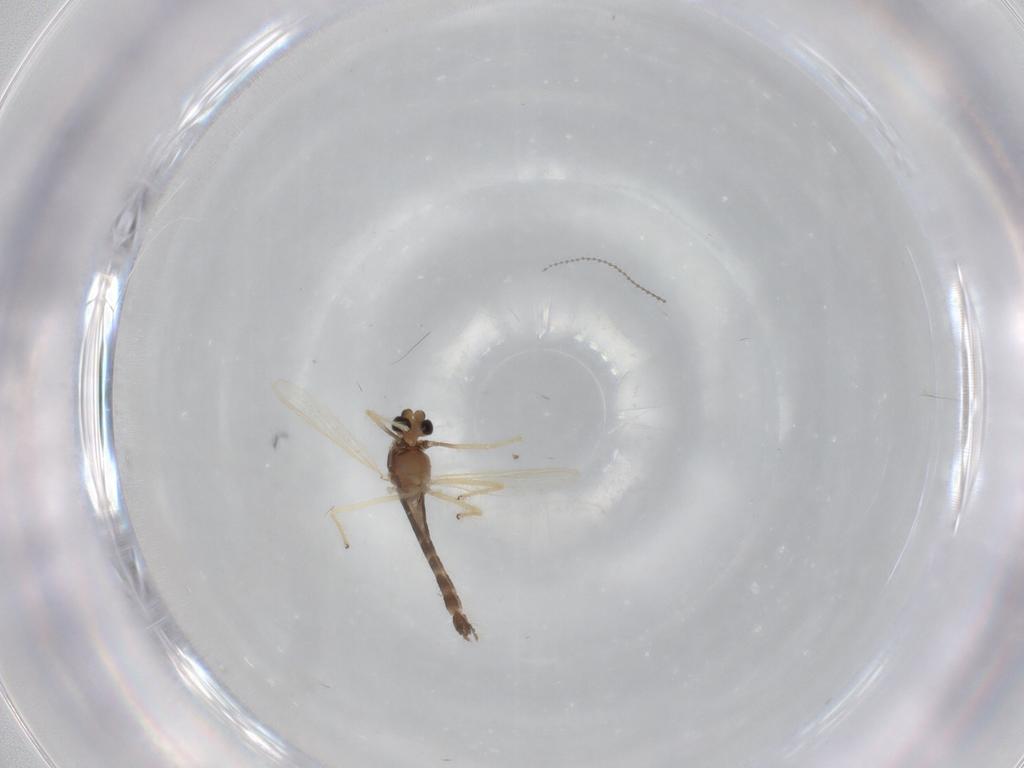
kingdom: Animalia
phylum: Arthropoda
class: Insecta
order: Diptera
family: Chironomidae
